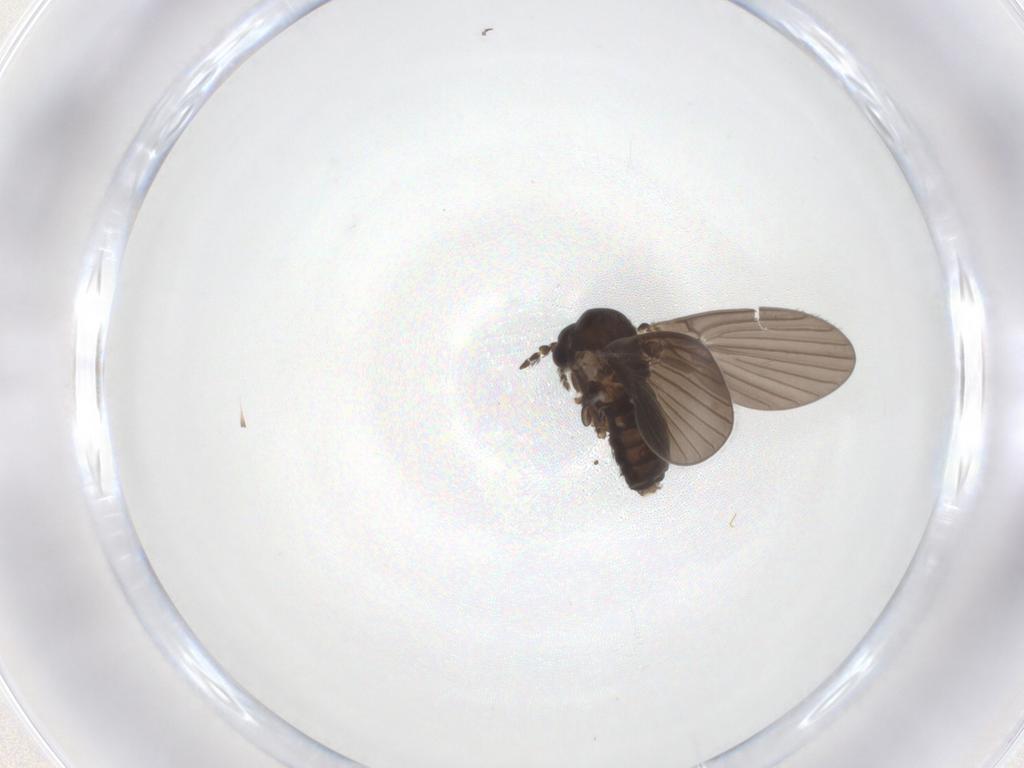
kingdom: Animalia
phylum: Arthropoda
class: Insecta
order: Diptera
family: Psychodidae
